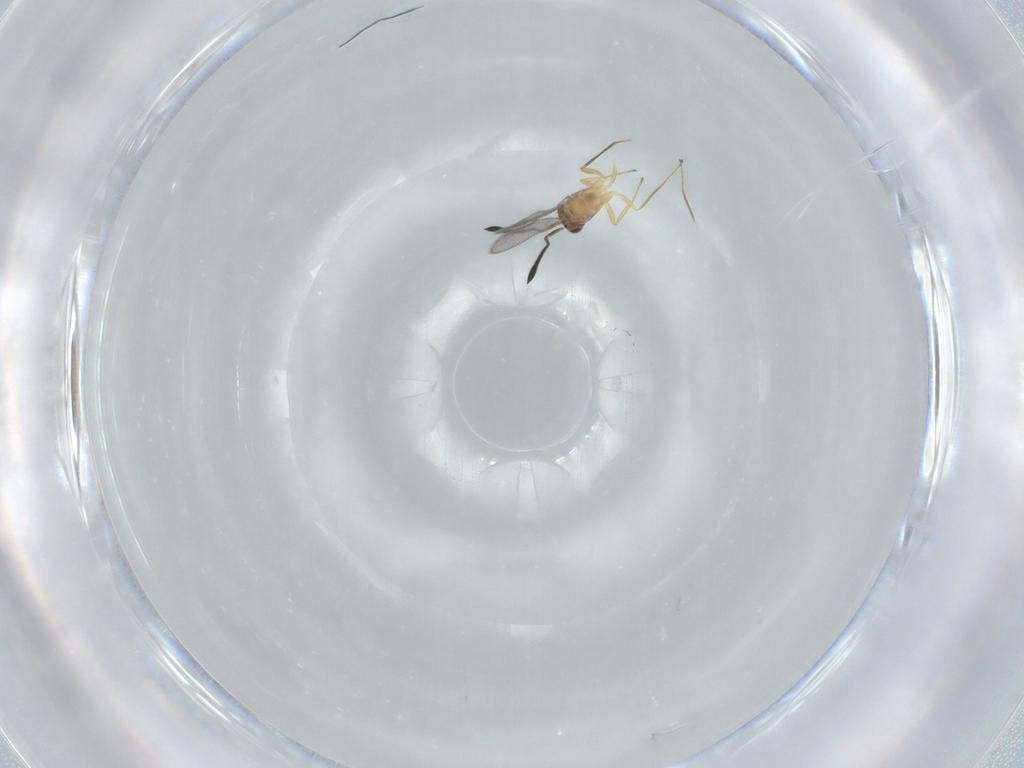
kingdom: Animalia
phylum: Arthropoda
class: Insecta
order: Hymenoptera
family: Mymaridae
